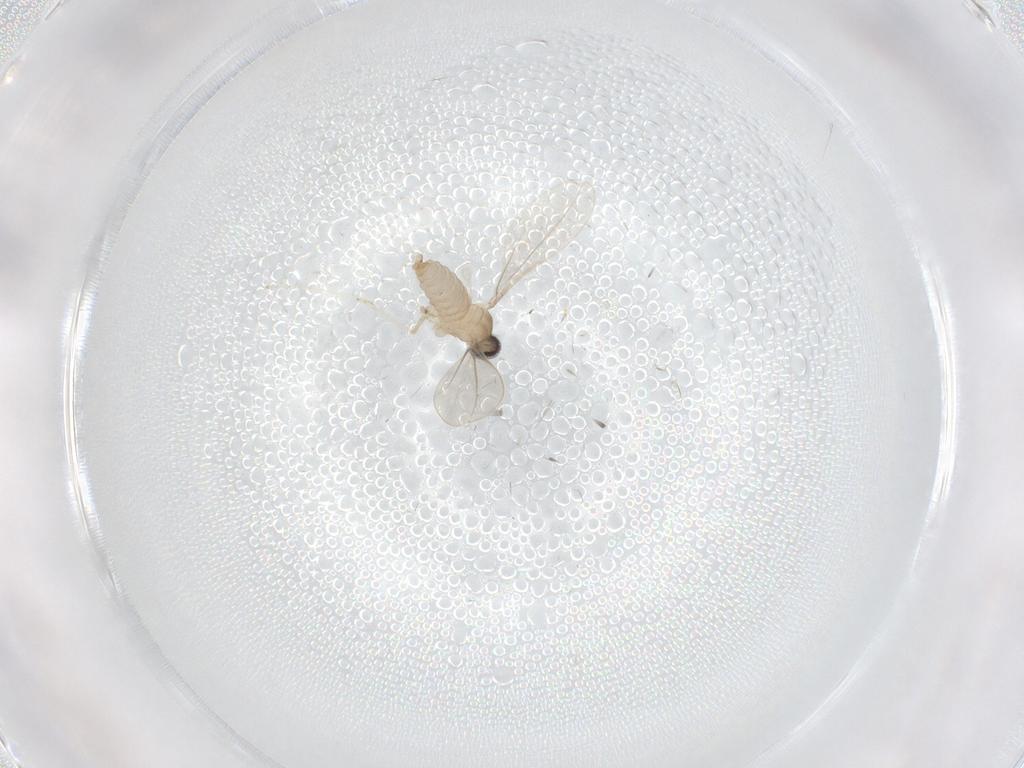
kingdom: Animalia
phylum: Arthropoda
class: Insecta
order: Diptera
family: Cecidomyiidae
